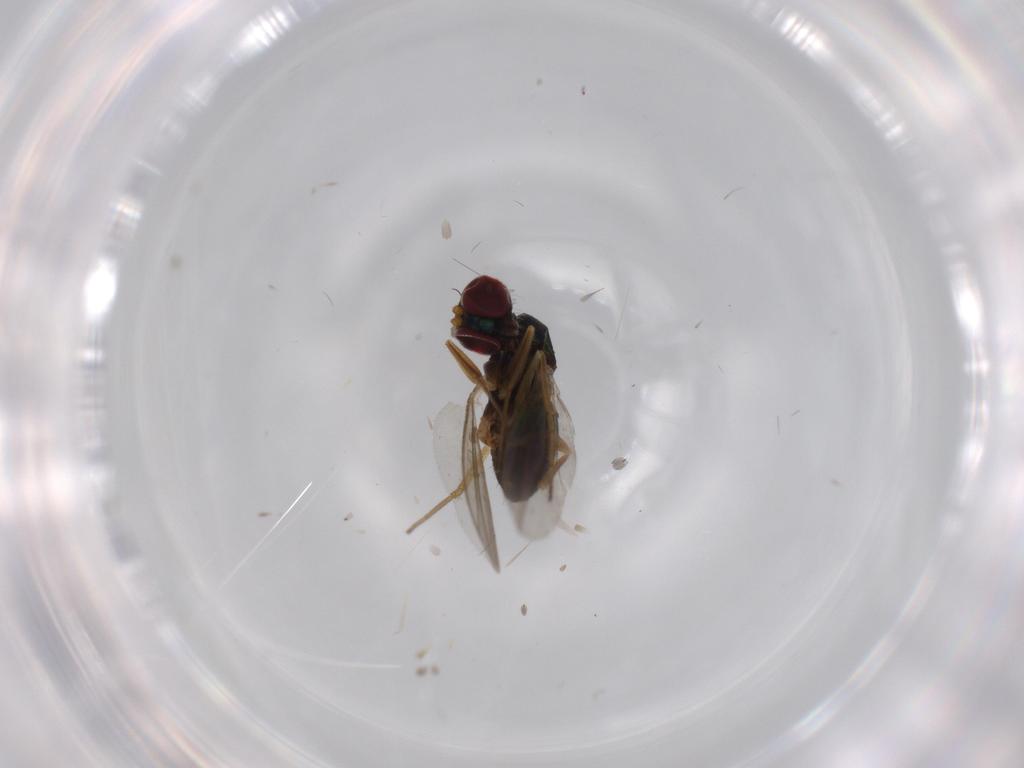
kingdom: Animalia
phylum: Arthropoda
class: Insecta
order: Diptera
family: Dolichopodidae
